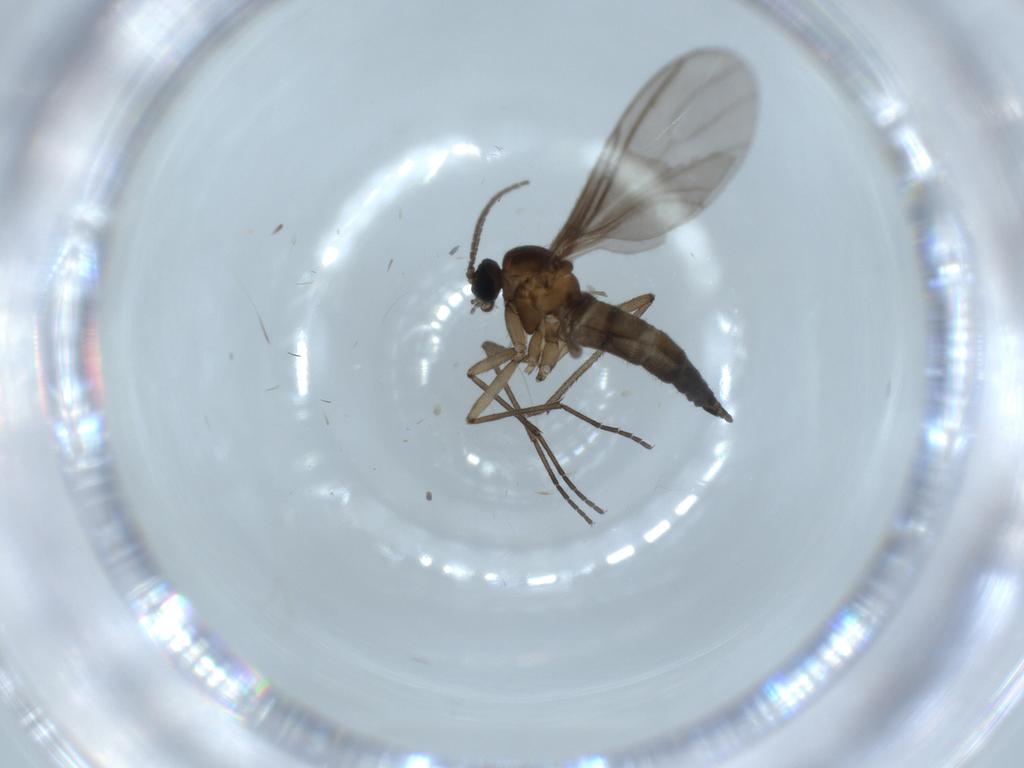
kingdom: Animalia
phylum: Arthropoda
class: Insecta
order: Diptera
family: Sciaridae
